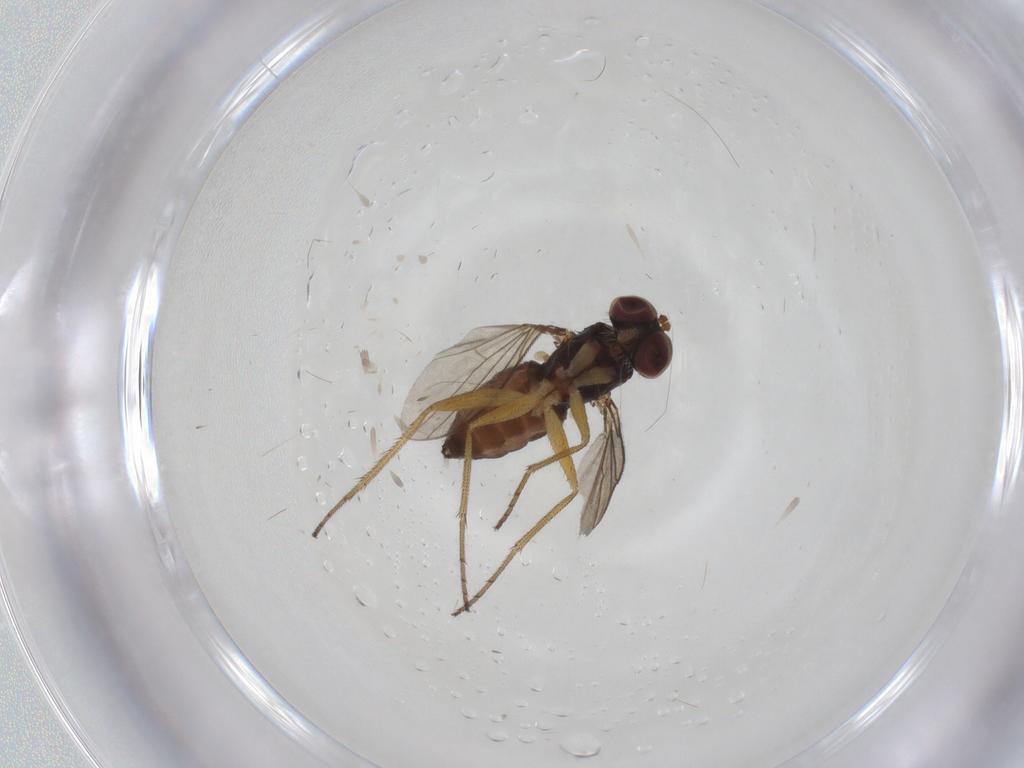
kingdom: Animalia
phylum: Arthropoda
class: Insecta
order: Diptera
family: Dolichopodidae
